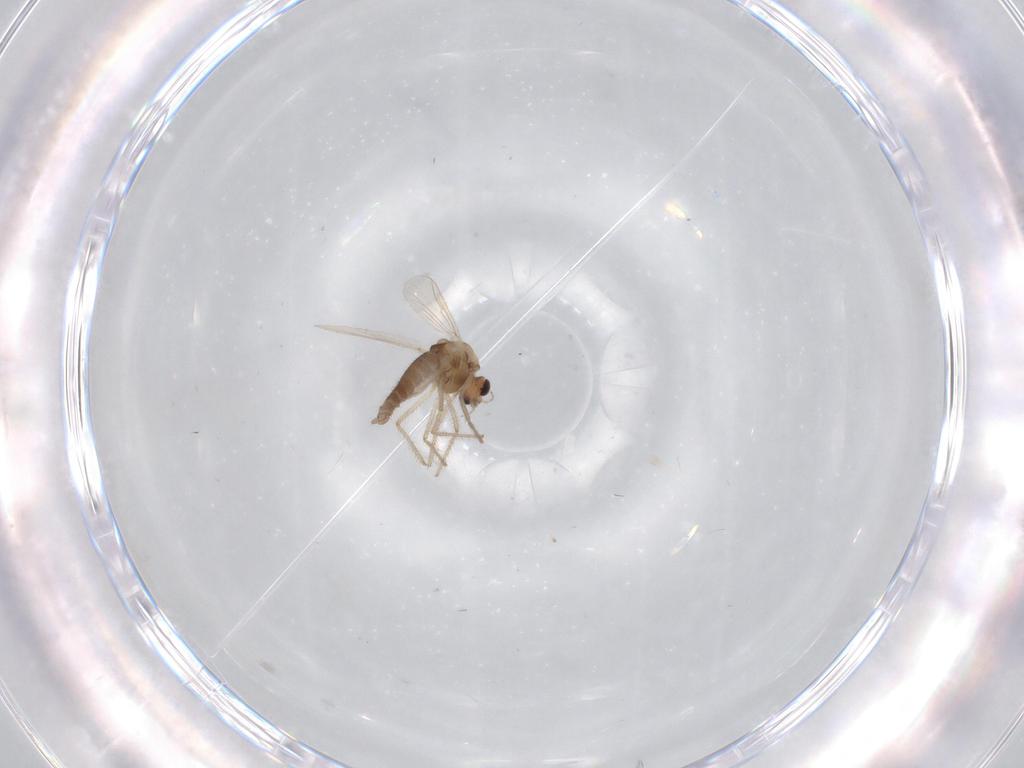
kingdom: Animalia
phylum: Arthropoda
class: Insecta
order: Diptera
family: Chironomidae
